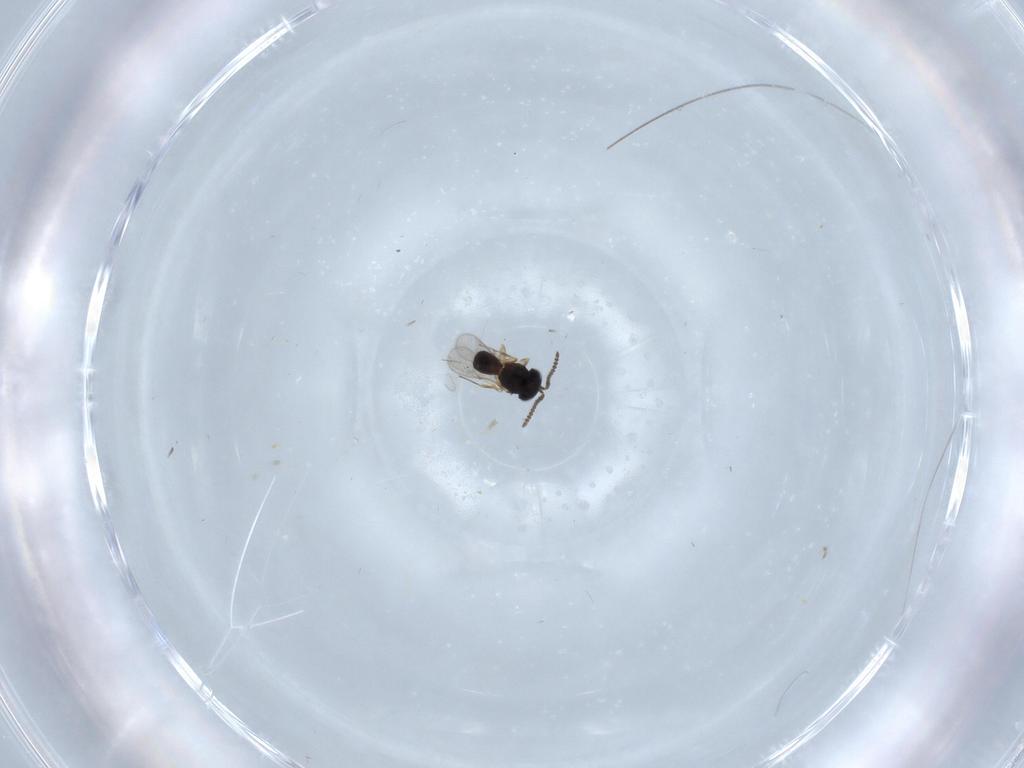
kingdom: Animalia
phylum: Arthropoda
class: Insecta
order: Hymenoptera
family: Scelionidae
